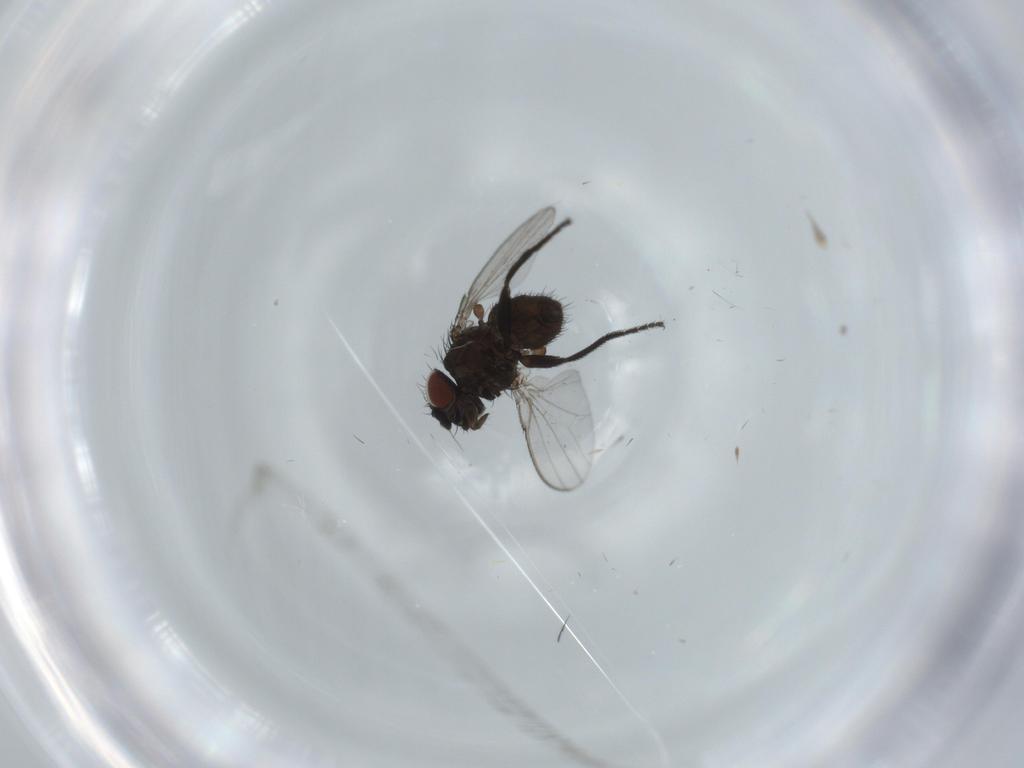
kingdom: Animalia
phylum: Arthropoda
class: Insecta
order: Diptera
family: Milichiidae
